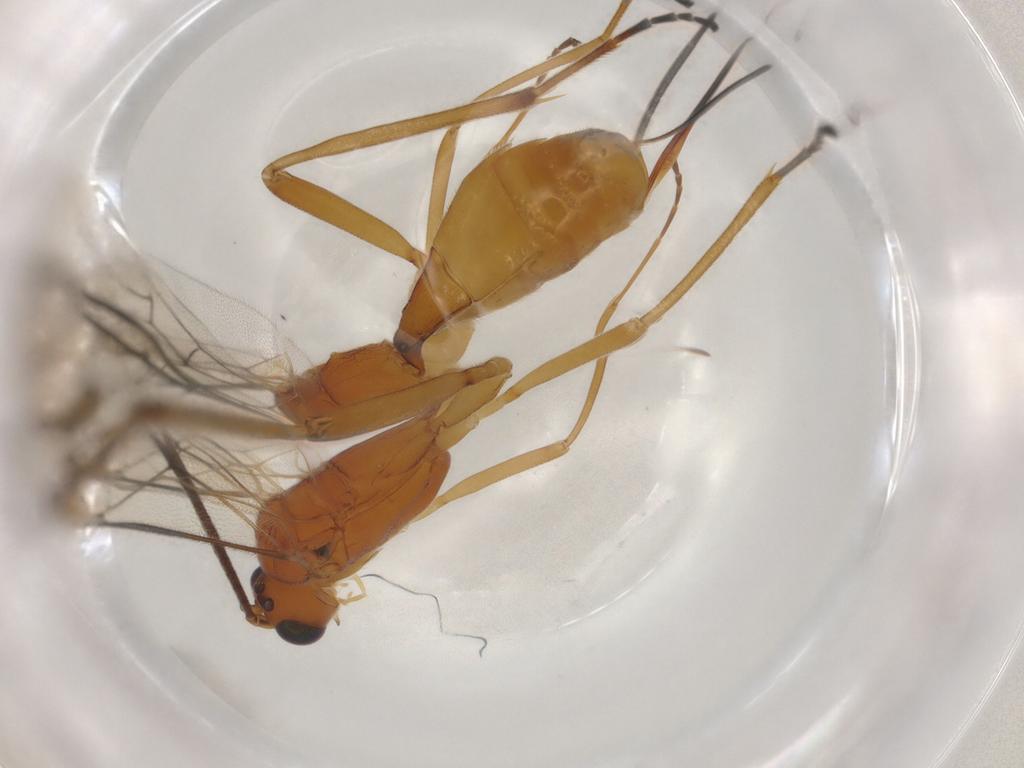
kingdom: Animalia
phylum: Arthropoda
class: Insecta
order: Hymenoptera
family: Braconidae
